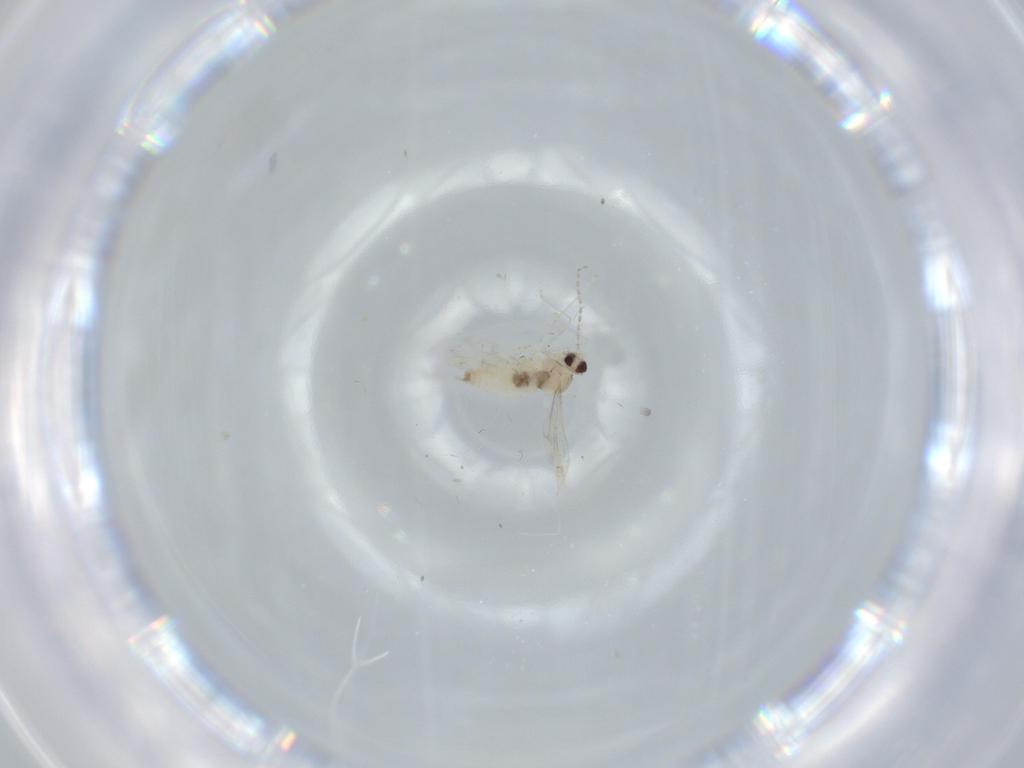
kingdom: Animalia
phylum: Arthropoda
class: Insecta
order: Diptera
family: Cecidomyiidae
